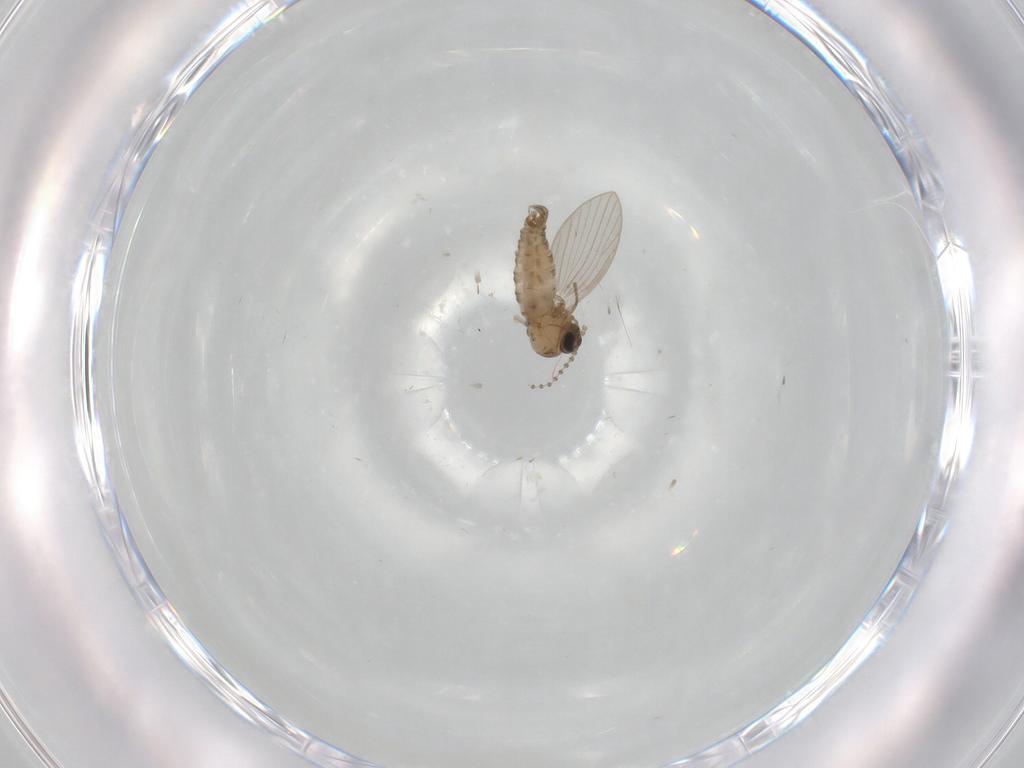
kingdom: Animalia
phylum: Arthropoda
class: Insecta
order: Diptera
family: Psychodidae
